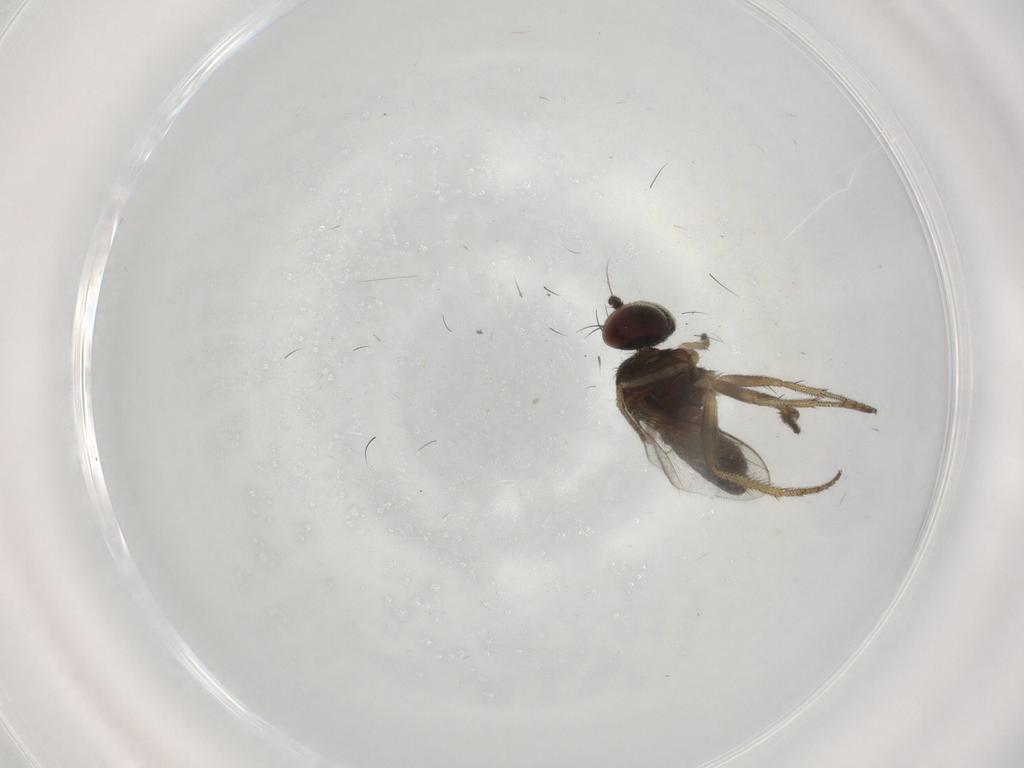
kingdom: Animalia
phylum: Arthropoda
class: Insecta
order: Diptera
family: Dolichopodidae
